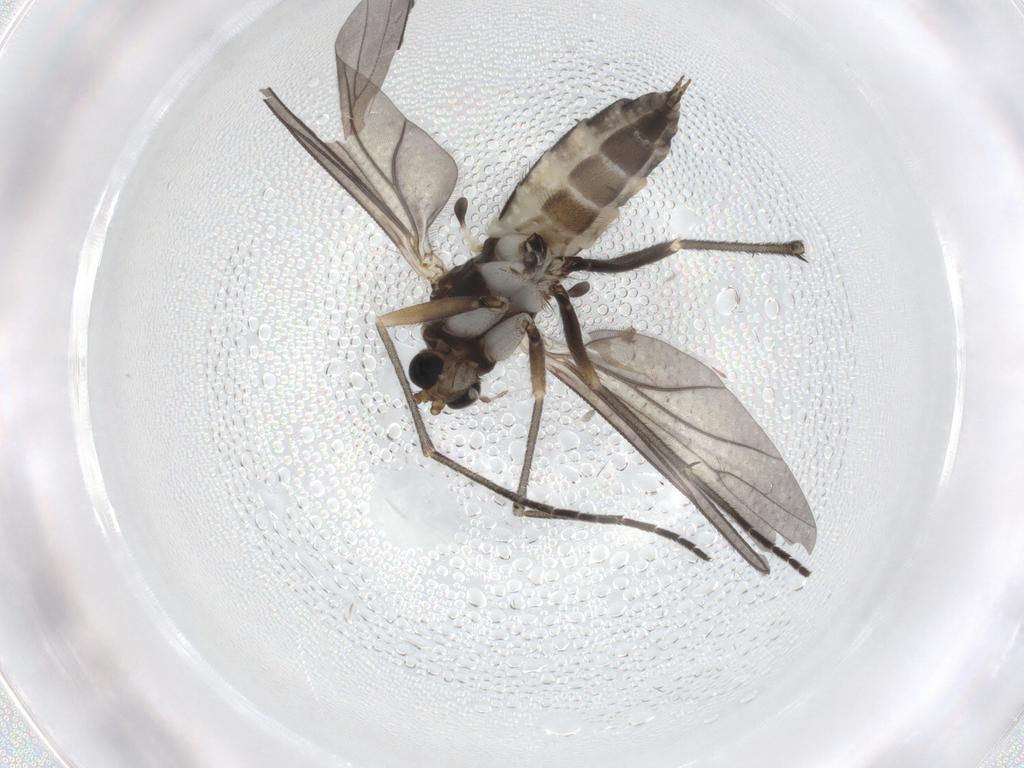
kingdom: Animalia
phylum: Arthropoda
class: Insecta
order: Diptera
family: Sciaridae
